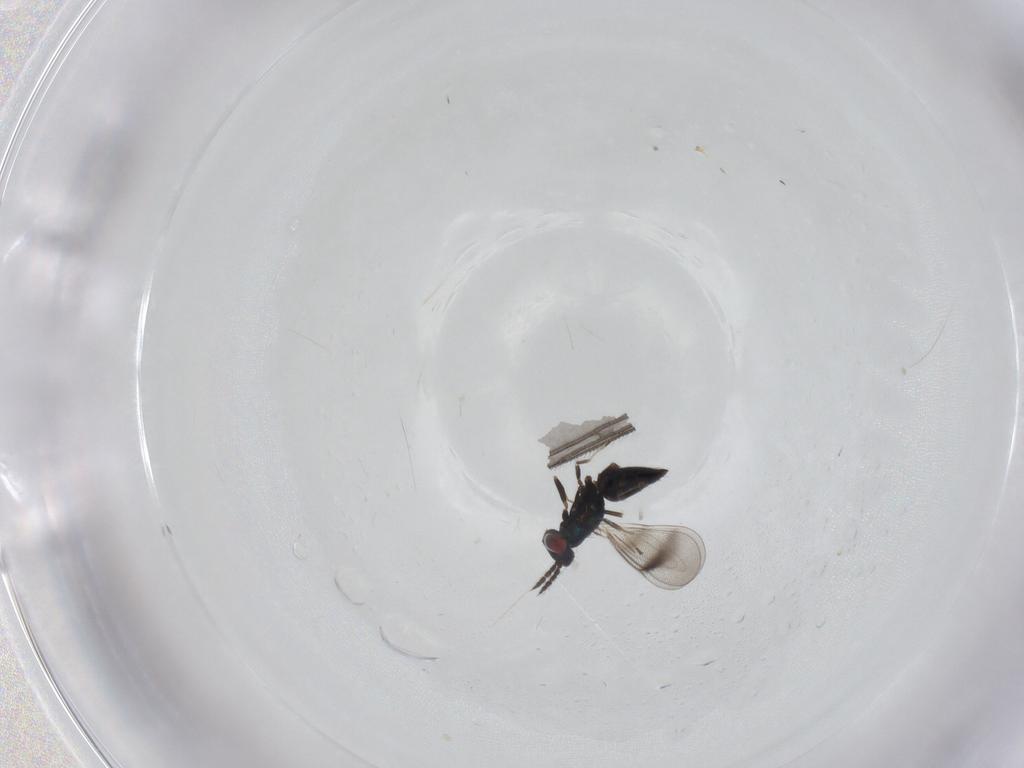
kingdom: Animalia
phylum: Arthropoda
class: Insecta
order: Hymenoptera
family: Eulophidae
